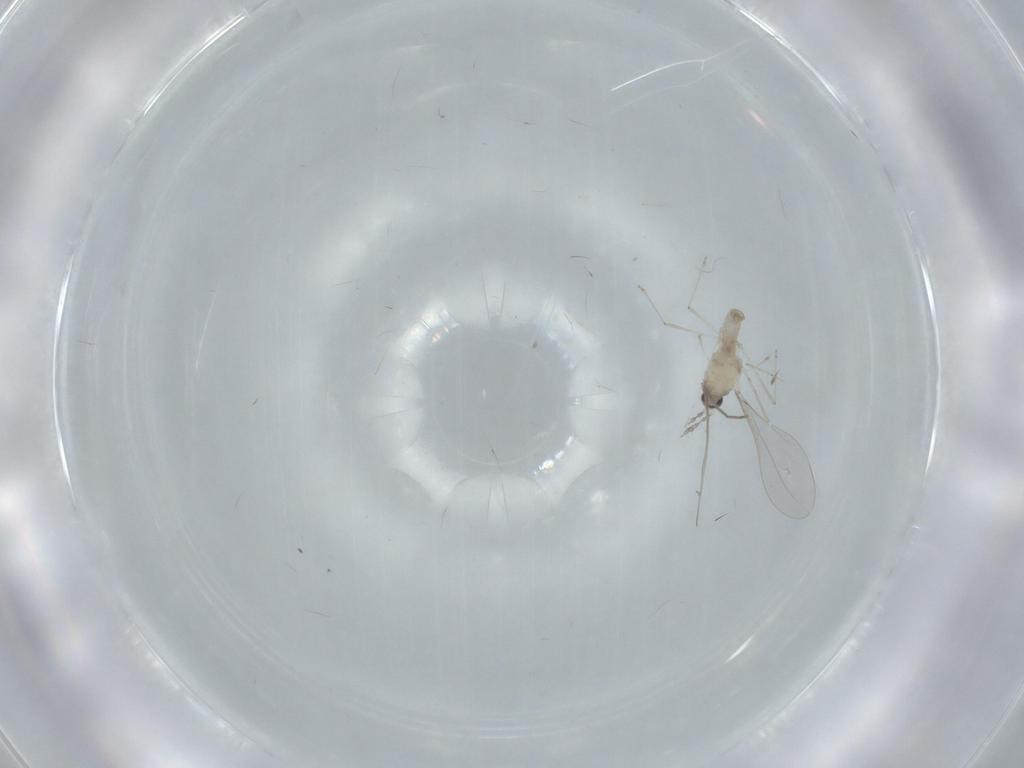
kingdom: Animalia
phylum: Arthropoda
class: Insecta
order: Diptera
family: Cecidomyiidae
